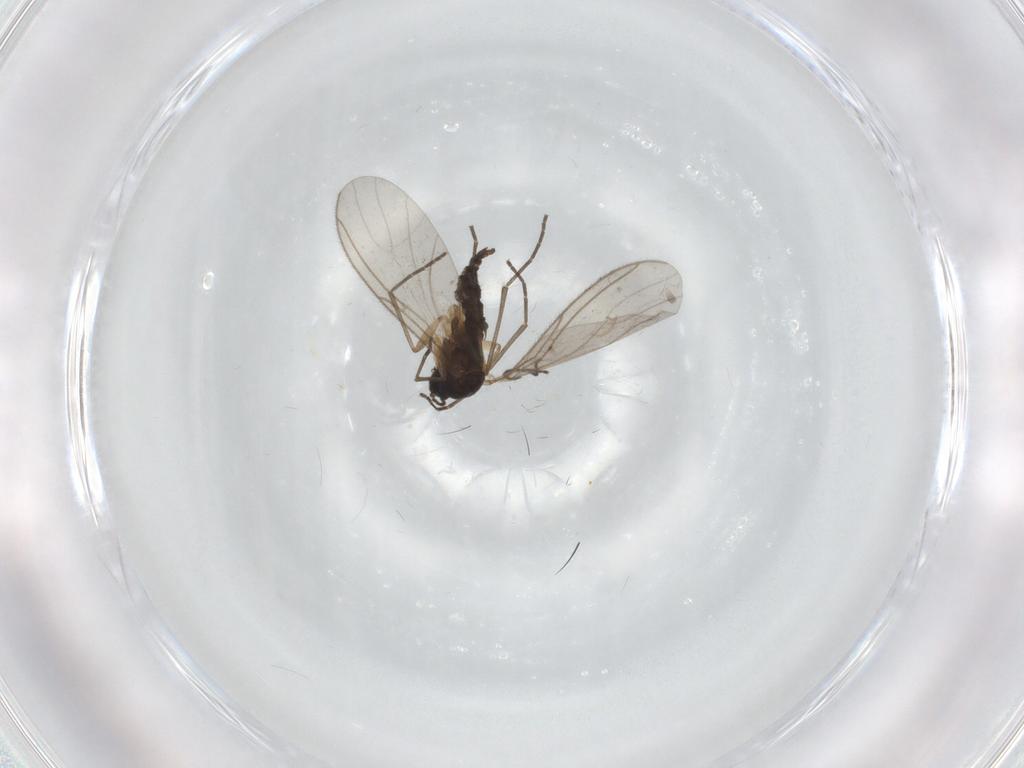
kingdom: Animalia
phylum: Arthropoda
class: Insecta
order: Diptera
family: Sciaridae
